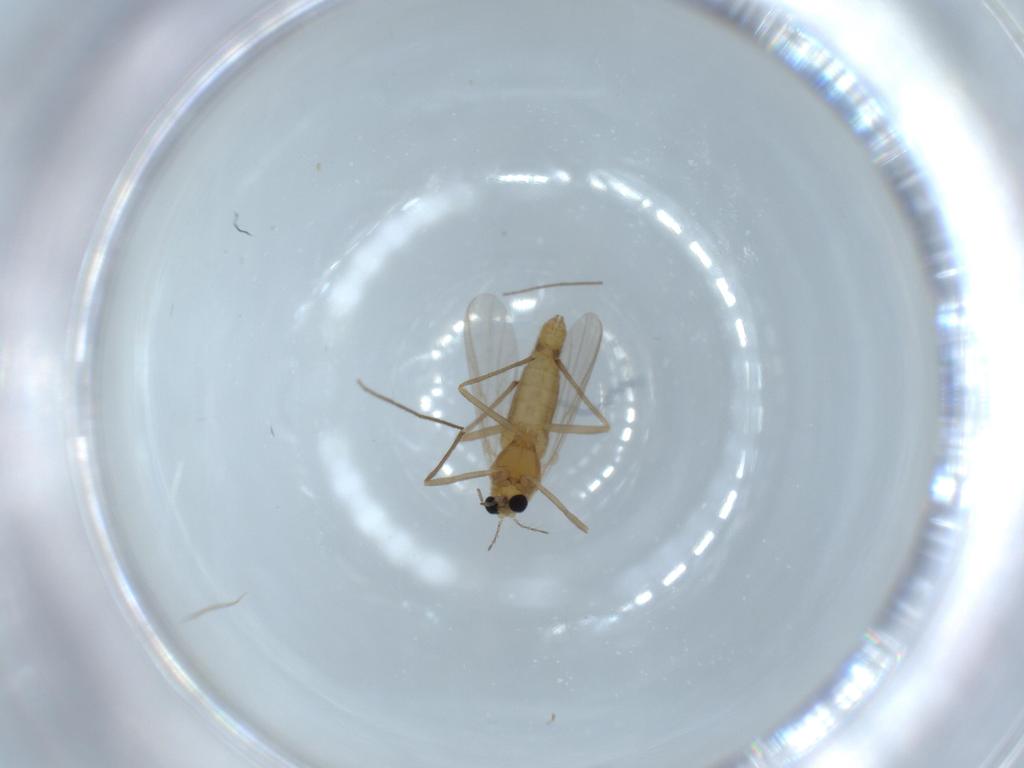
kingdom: Animalia
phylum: Arthropoda
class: Insecta
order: Diptera
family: Chironomidae
